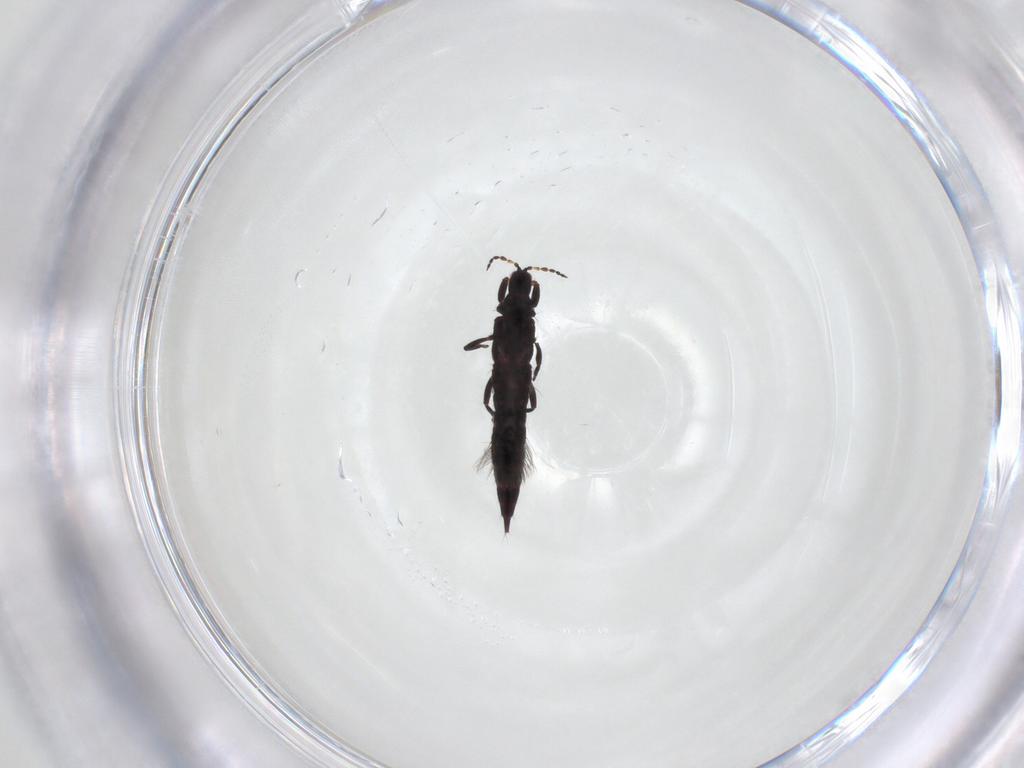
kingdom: Animalia
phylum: Arthropoda
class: Insecta
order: Thysanoptera
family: Phlaeothripidae
